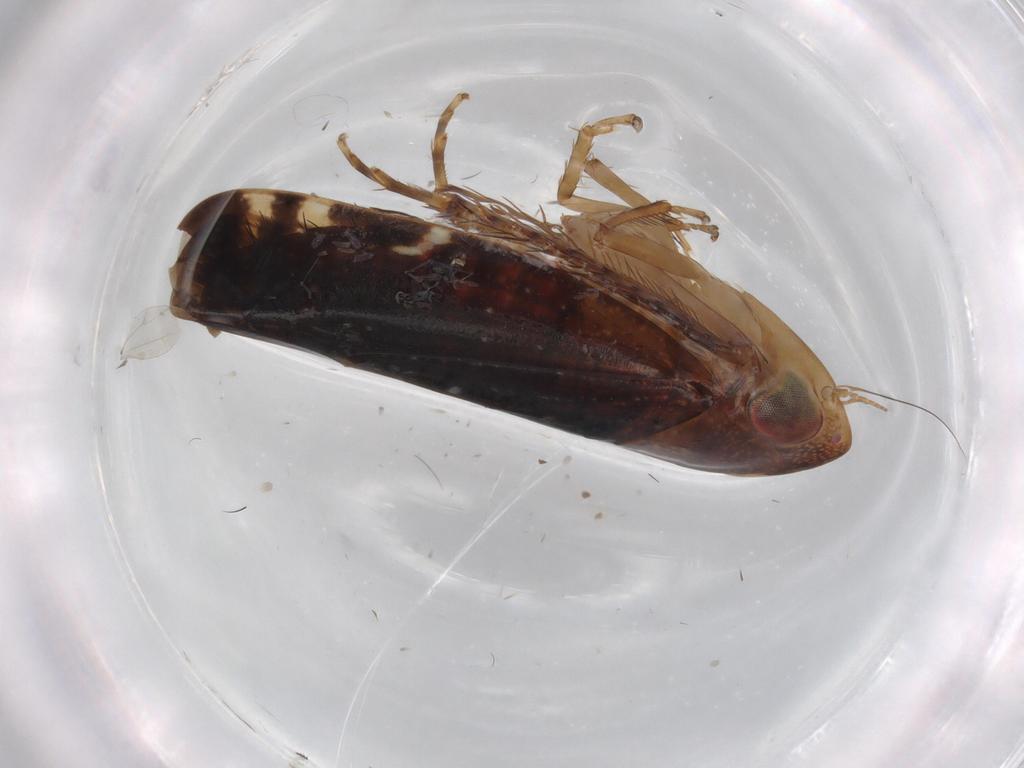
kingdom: Animalia
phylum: Arthropoda
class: Insecta
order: Hemiptera
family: Cicadellidae
